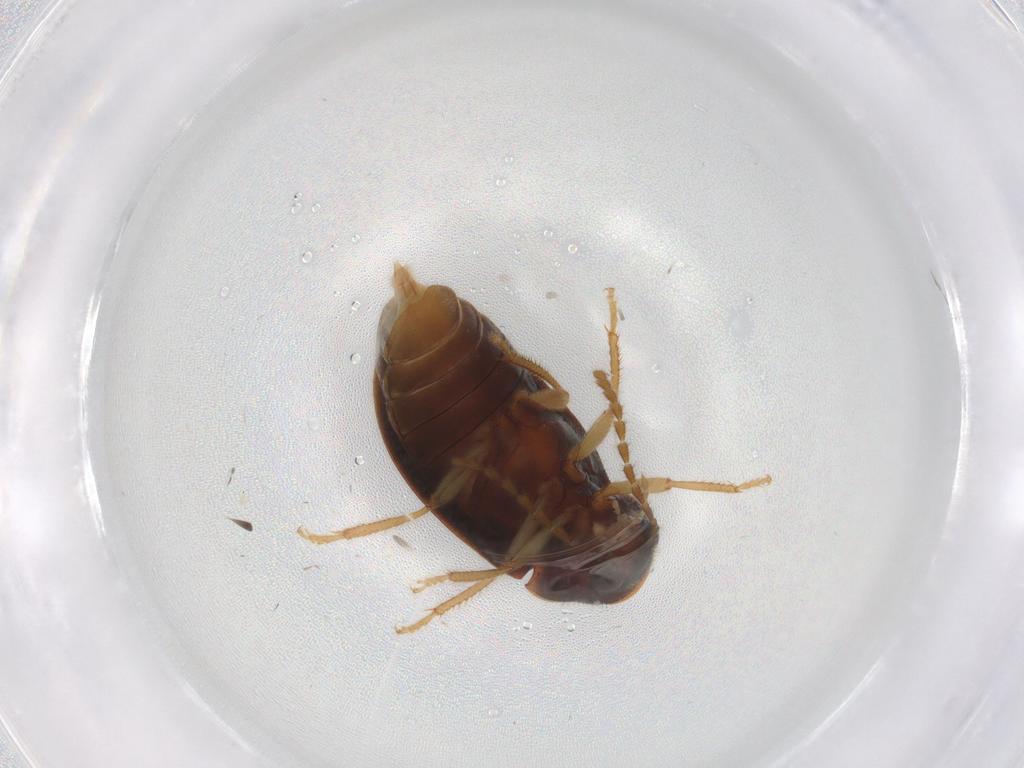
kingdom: Animalia
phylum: Arthropoda
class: Insecta
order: Coleoptera
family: Ptilodactylidae
